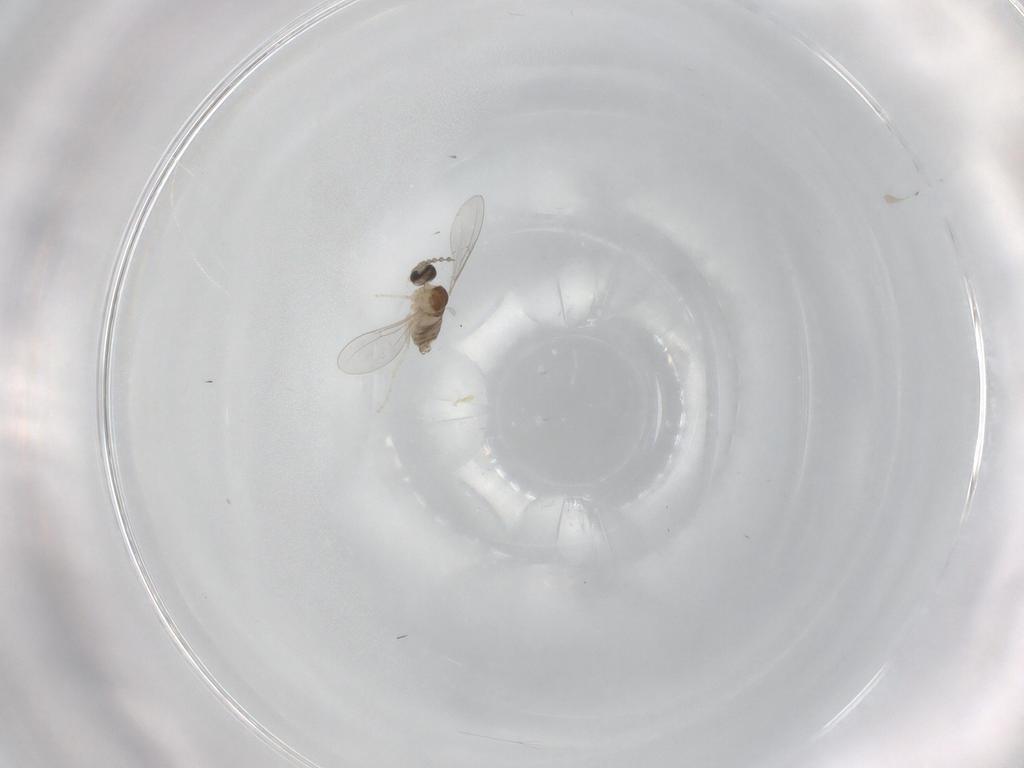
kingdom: Animalia
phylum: Arthropoda
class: Insecta
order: Diptera
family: Cecidomyiidae
